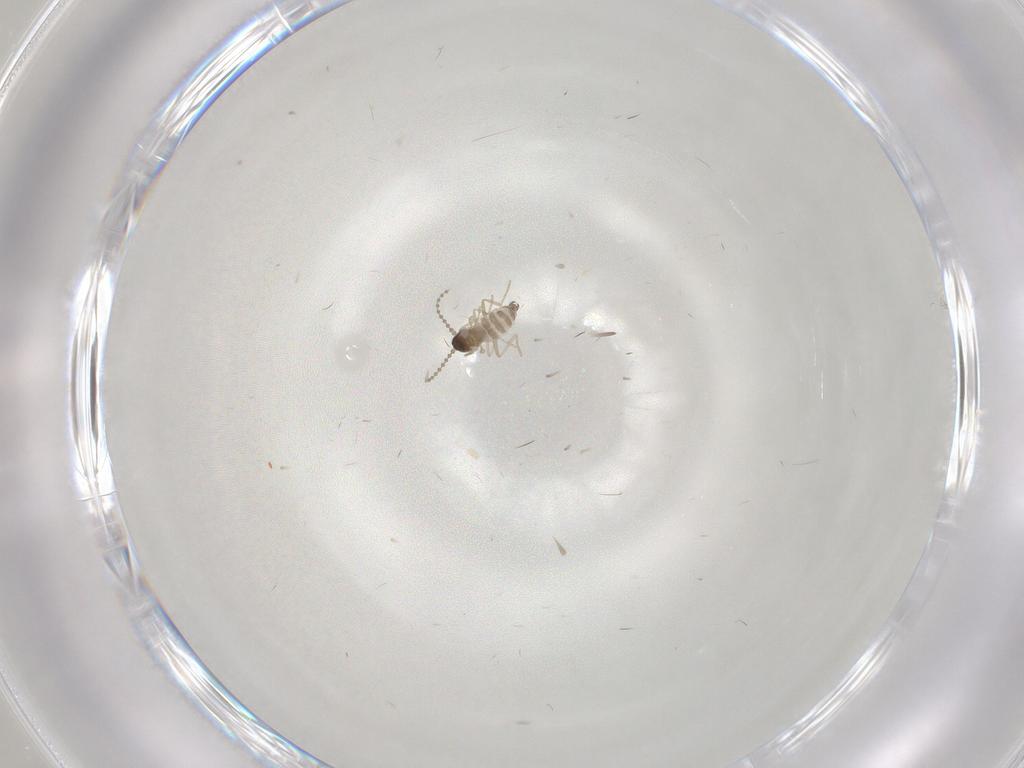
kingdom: Animalia
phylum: Arthropoda
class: Insecta
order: Diptera
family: Cecidomyiidae
